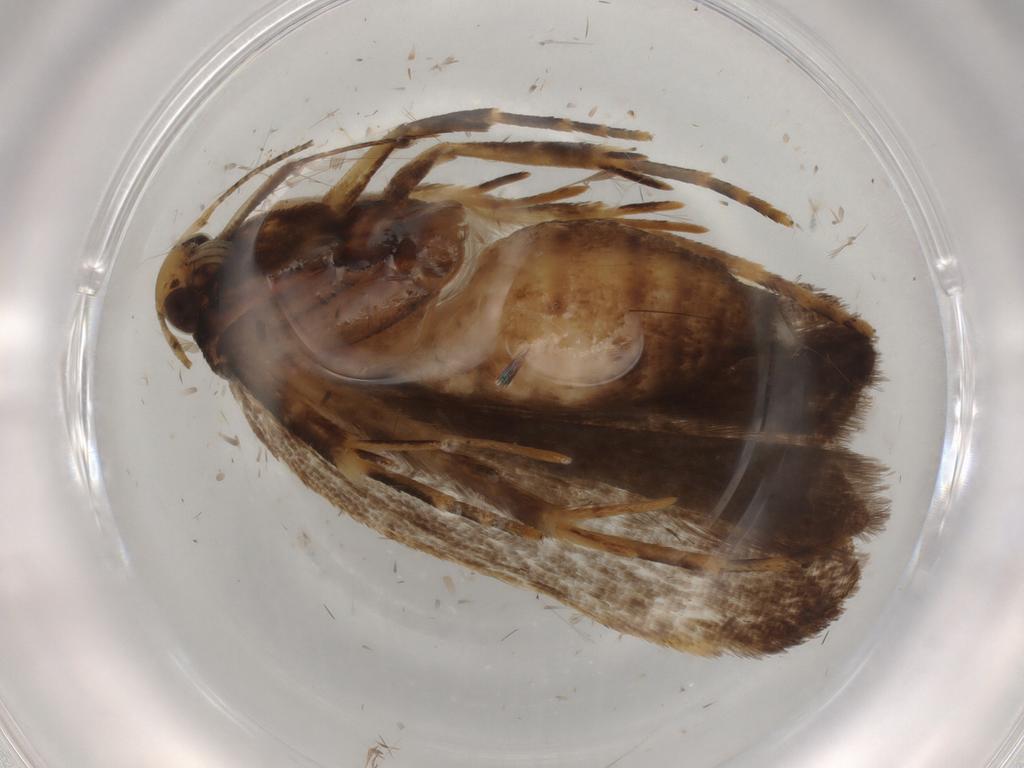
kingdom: Animalia
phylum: Arthropoda
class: Insecta
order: Lepidoptera
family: Gelechiidae
